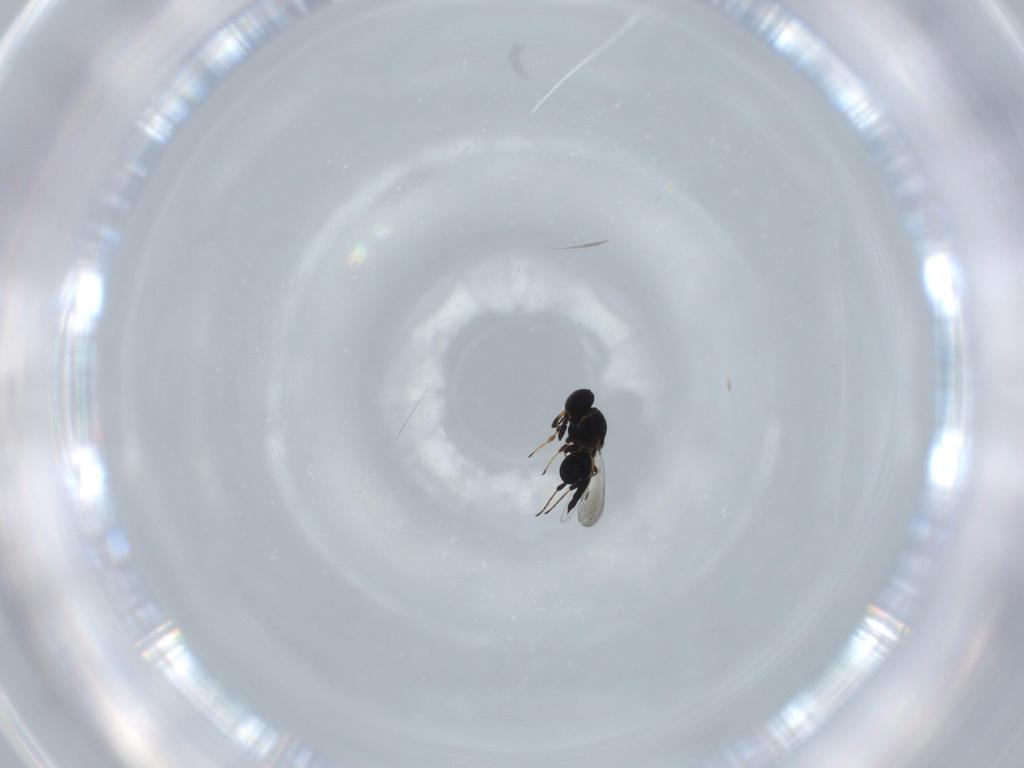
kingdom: Animalia
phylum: Arthropoda
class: Insecta
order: Hymenoptera
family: Platygastridae
